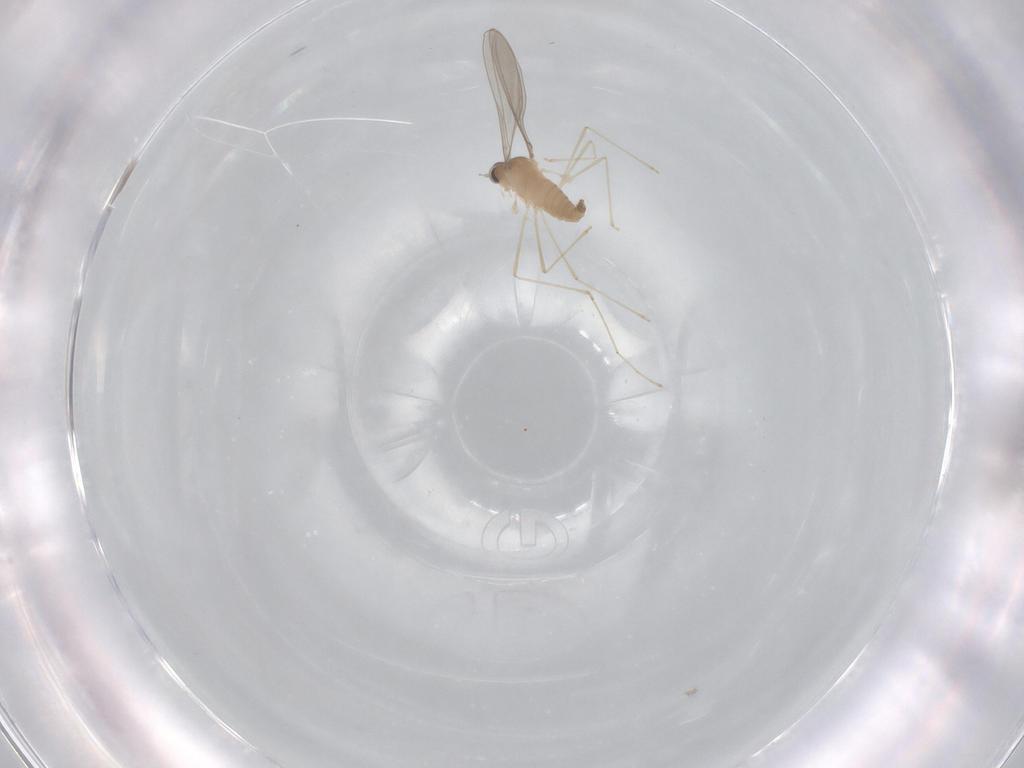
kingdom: Animalia
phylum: Arthropoda
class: Insecta
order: Diptera
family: Cecidomyiidae
